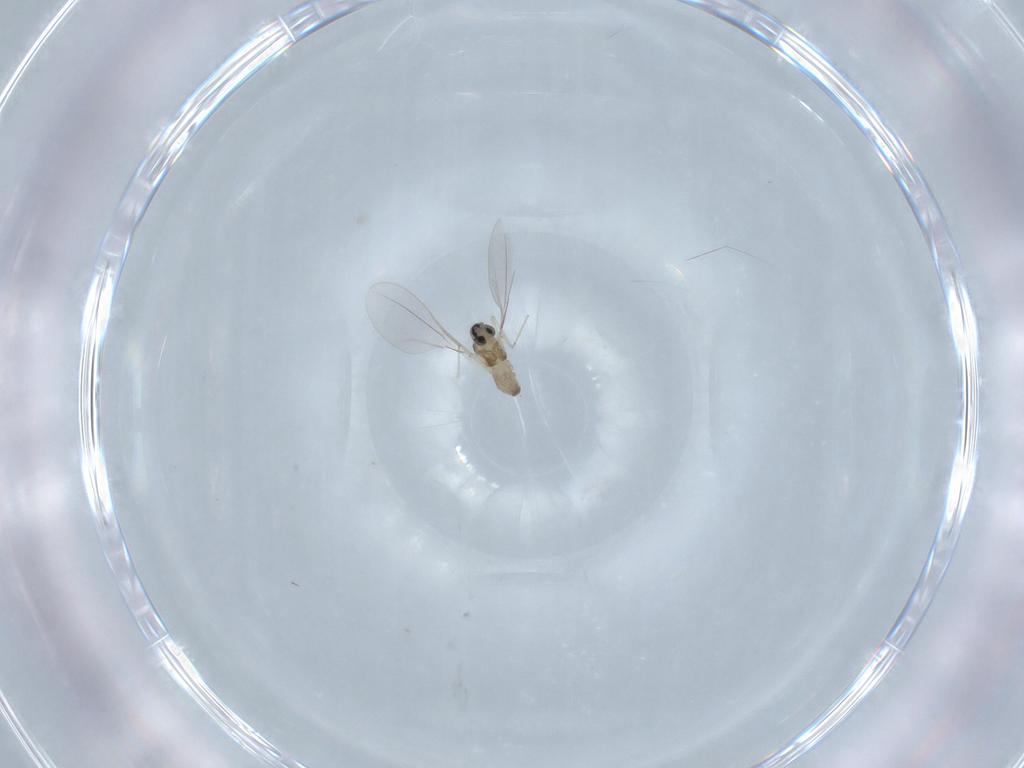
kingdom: Animalia
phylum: Arthropoda
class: Insecta
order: Diptera
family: Cecidomyiidae
